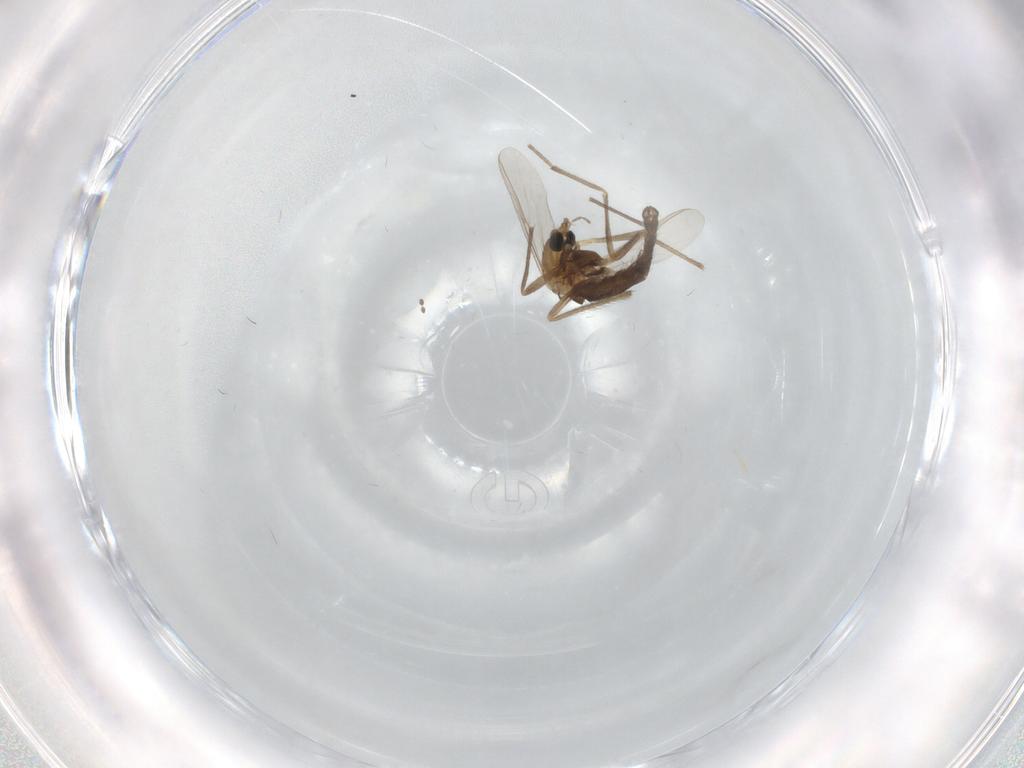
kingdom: Animalia
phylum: Arthropoda
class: Insecta
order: Diptera
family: Chironomidae
